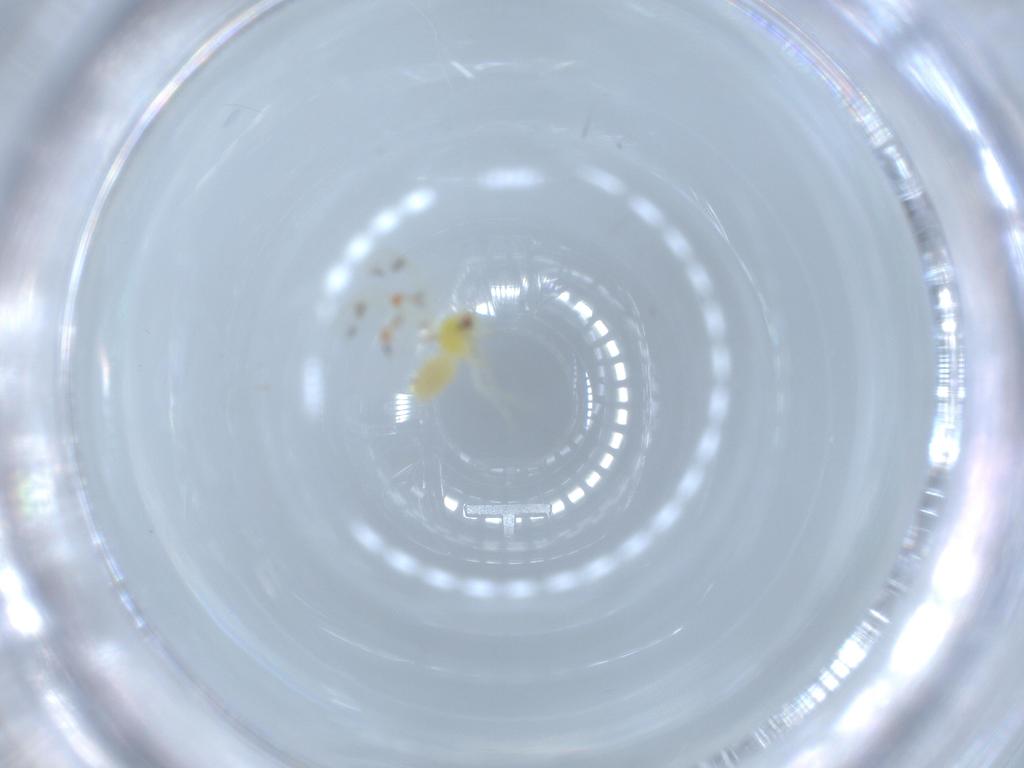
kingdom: Animalia
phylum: Arthropoda
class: Insecta
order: Hemiptera
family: Aleyrodidae
